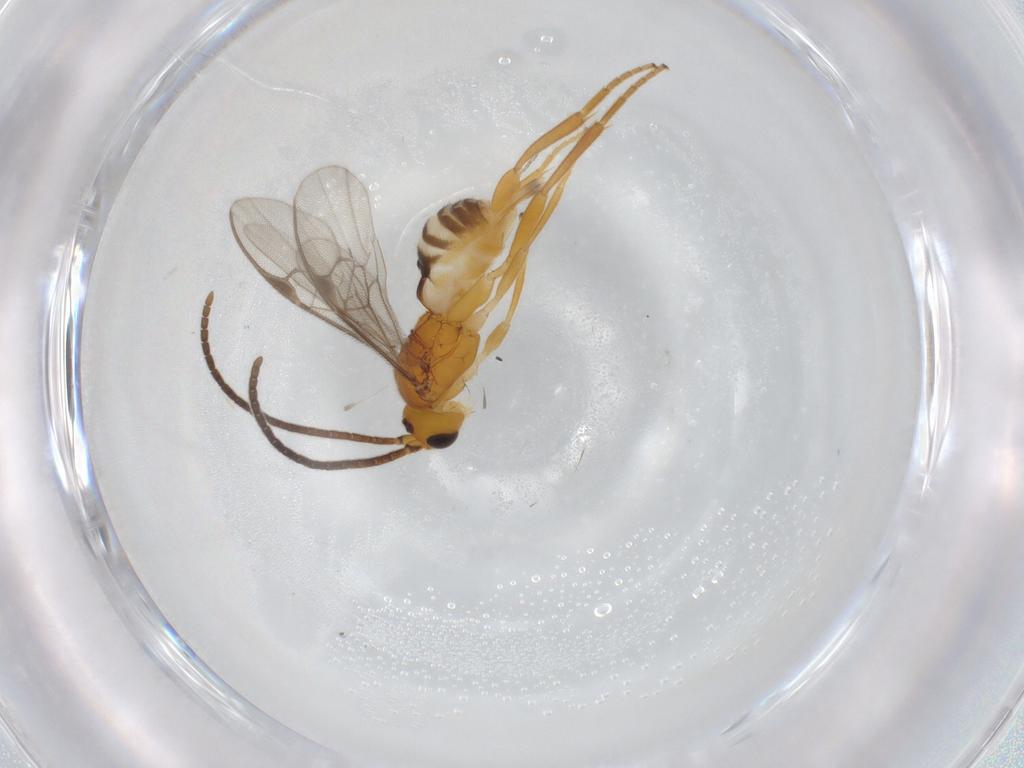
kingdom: Animalia
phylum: Arthropoda
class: Insecta
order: Hymenoptera
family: Braconidae
